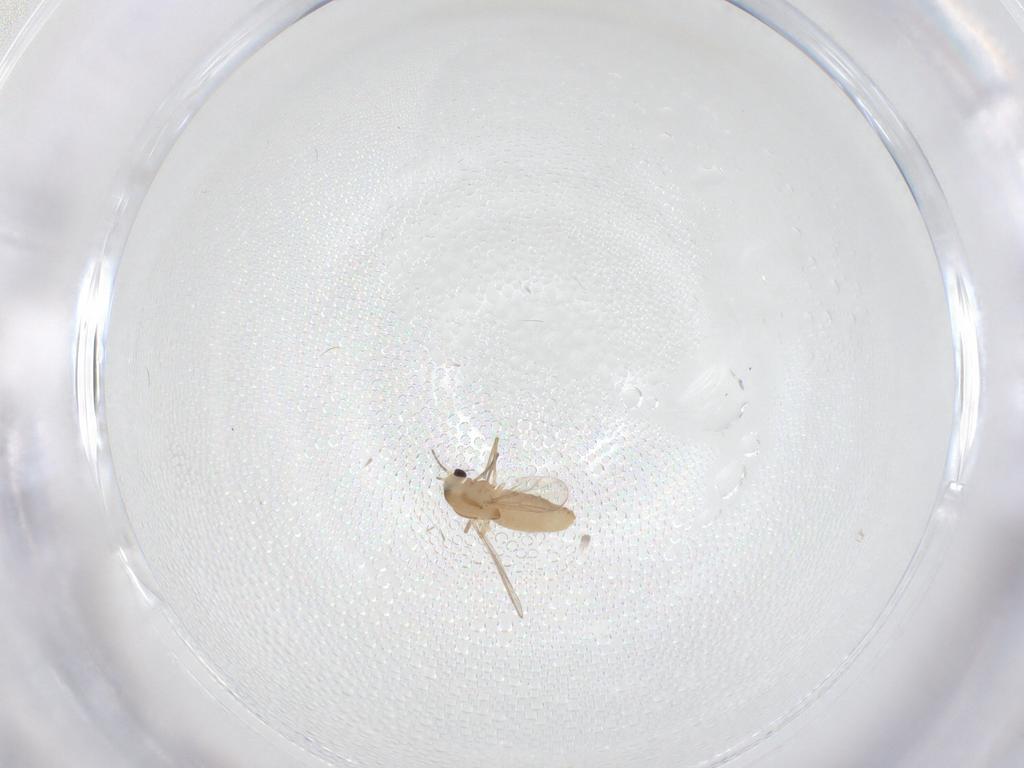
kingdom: Animalia
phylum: Arthropoda
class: Insecta
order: Diptera
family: Chironomidae
